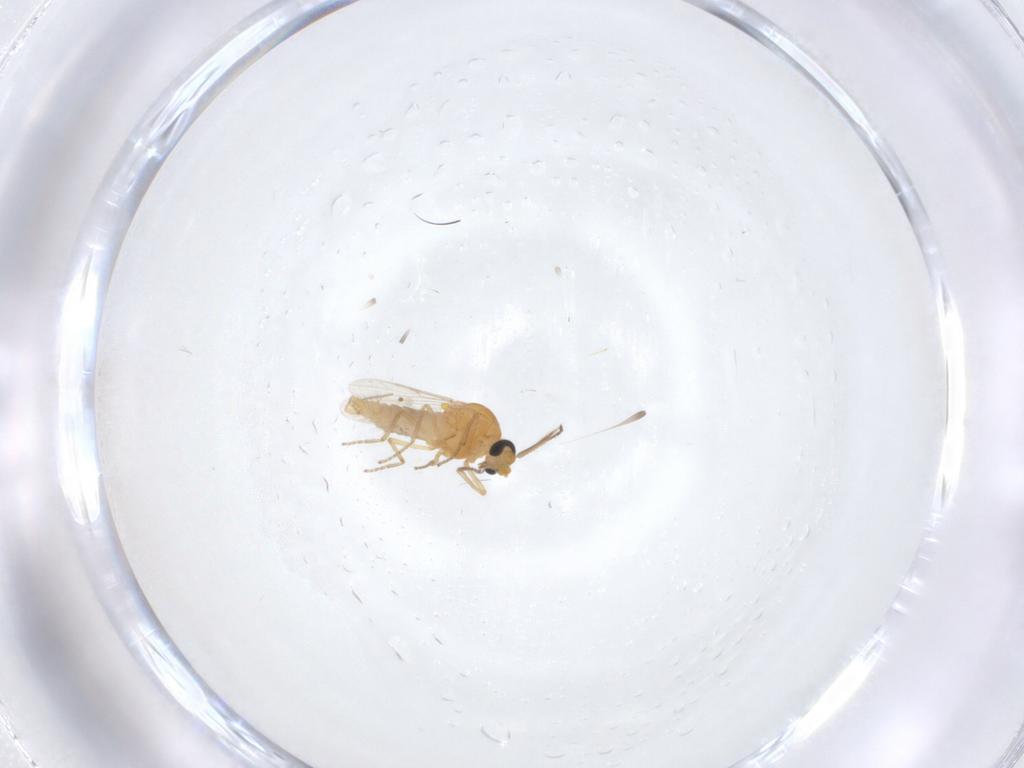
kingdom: Animalia
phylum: Arthropoda
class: Insecta
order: Diptera
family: Ceratopogonidae
